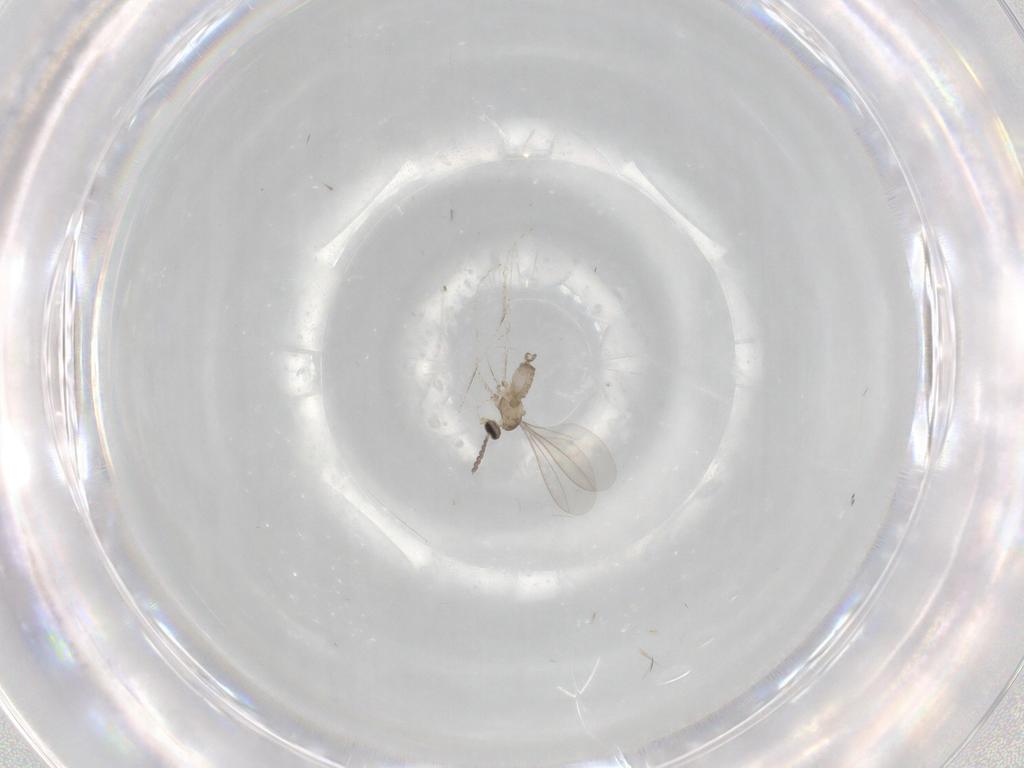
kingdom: Animalia
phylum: Arthropoda
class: Insecta
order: Diptera
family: Cecidomyiidae
